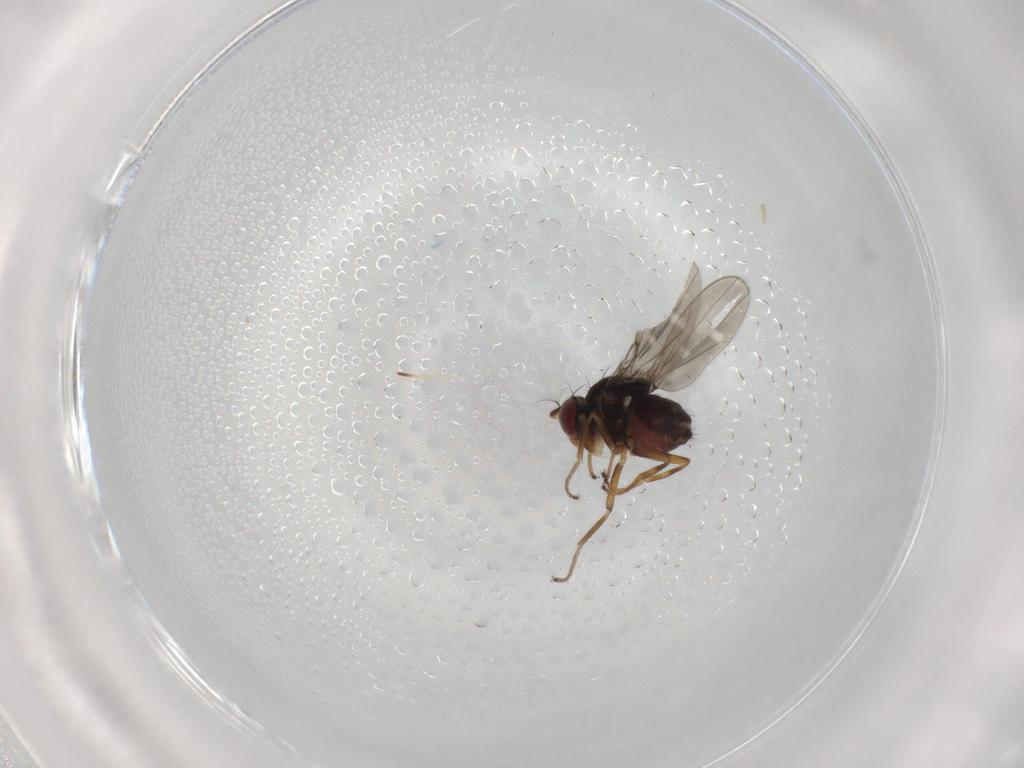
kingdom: Animalia
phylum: Arthropoda
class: Insecta
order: Diptera
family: Ephydridae
